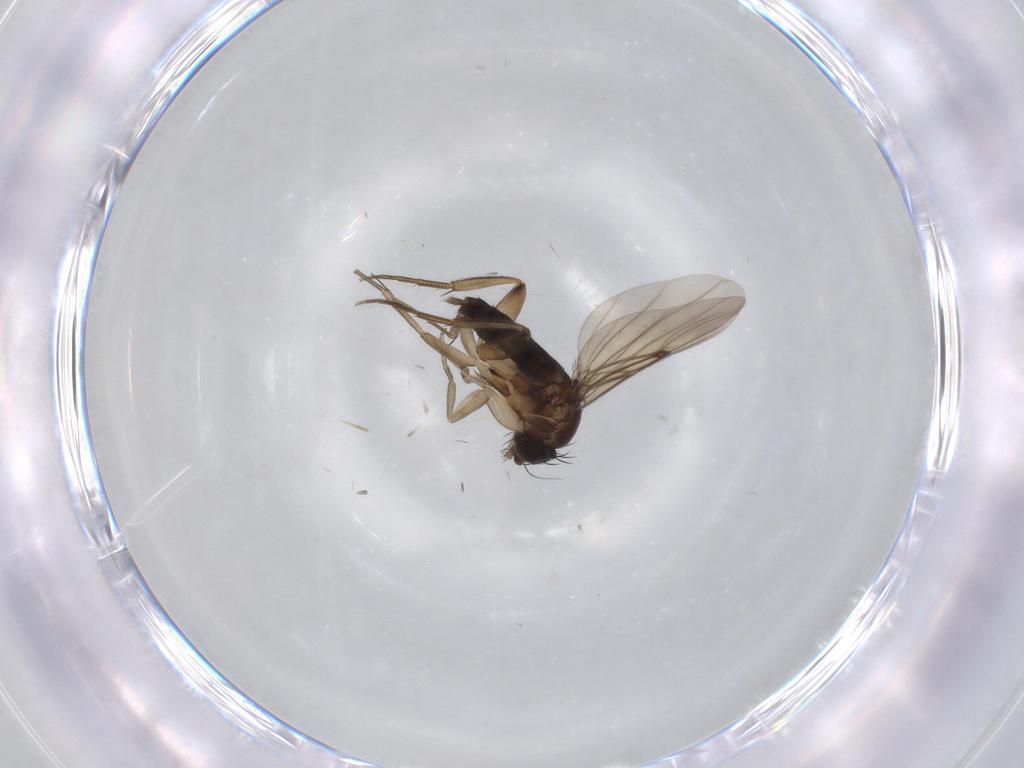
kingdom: Animalia
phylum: Arthropoda
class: Insecta
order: Diptera
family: Phoridae
